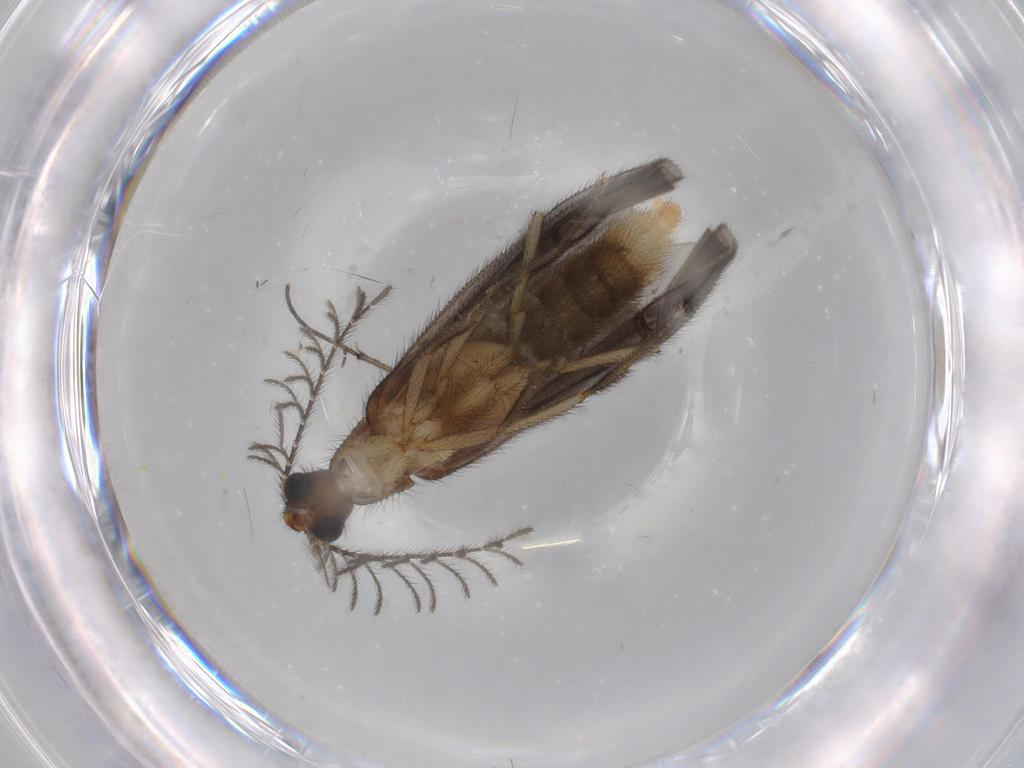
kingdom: Animalia
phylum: Arthropoda
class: Insecta
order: Coleoptera
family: Phengodidae
